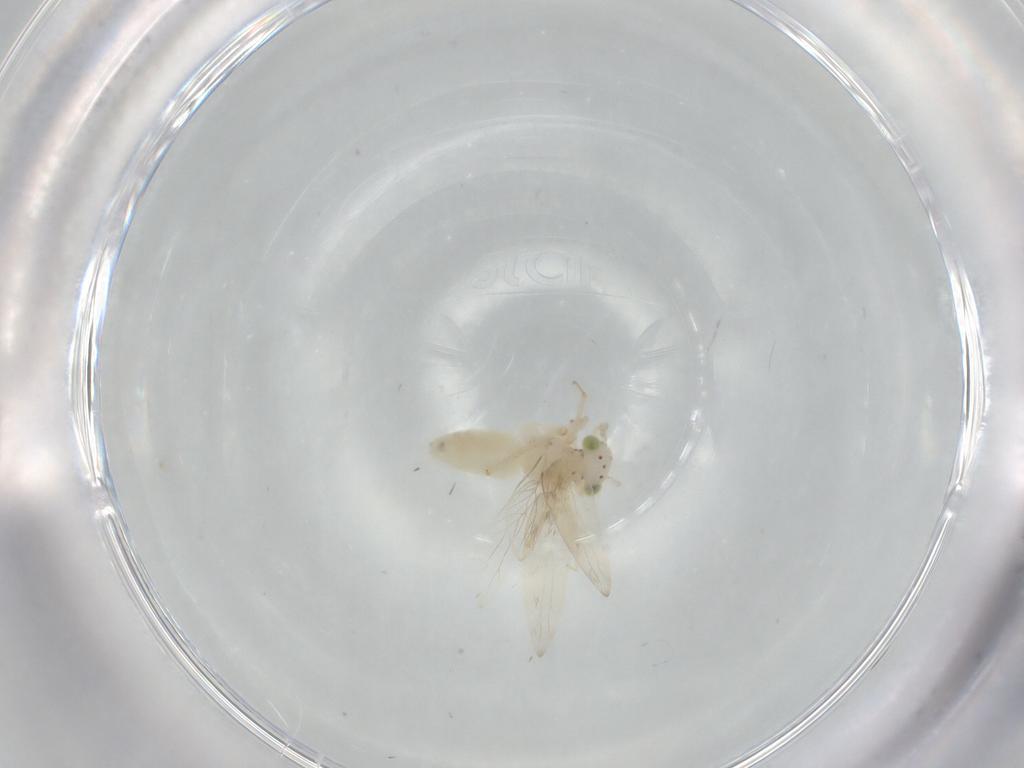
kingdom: Animalia
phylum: Arthropoda
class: Insecta
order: Psocodea
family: Lepidopsocidae
